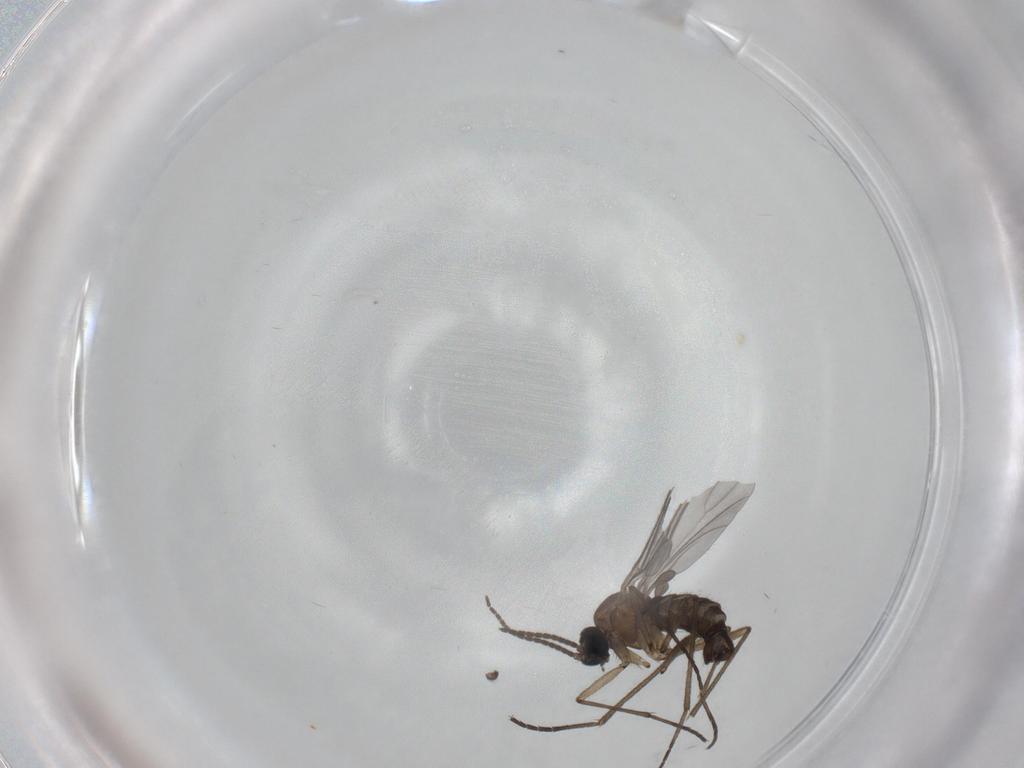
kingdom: Animalia
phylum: Arthropoda
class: Insecta
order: Diptera
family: Sciaridae
